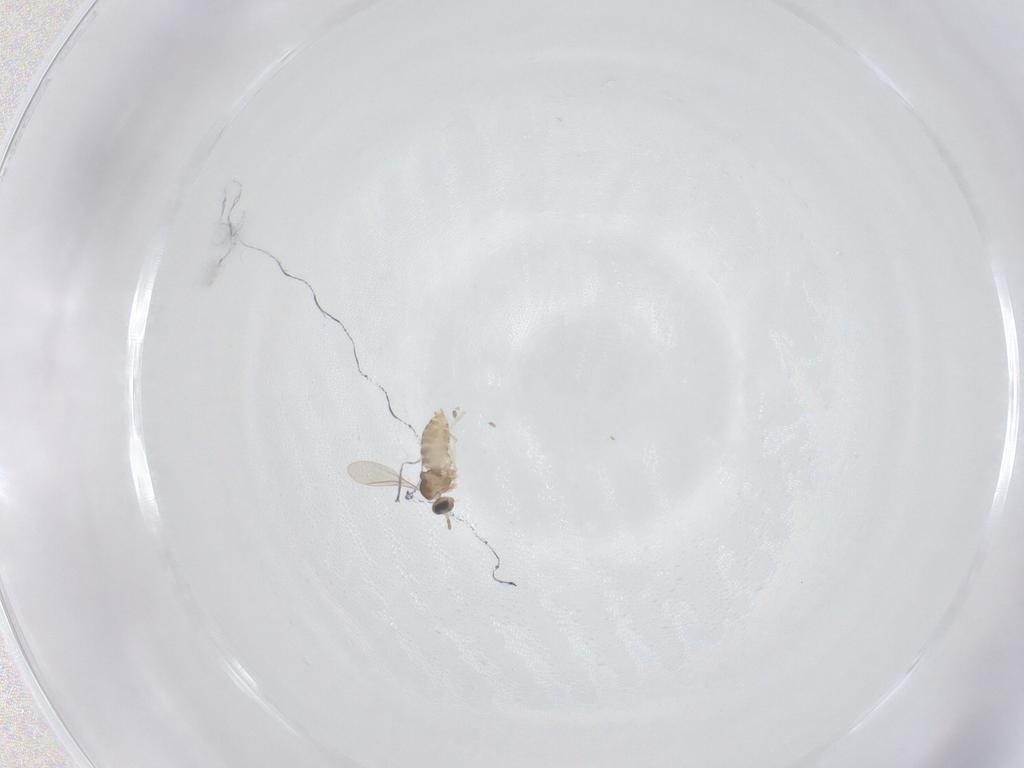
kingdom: Animalia
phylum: Arthropoda
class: Insecta
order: Diptera
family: Cecidomyiidae
